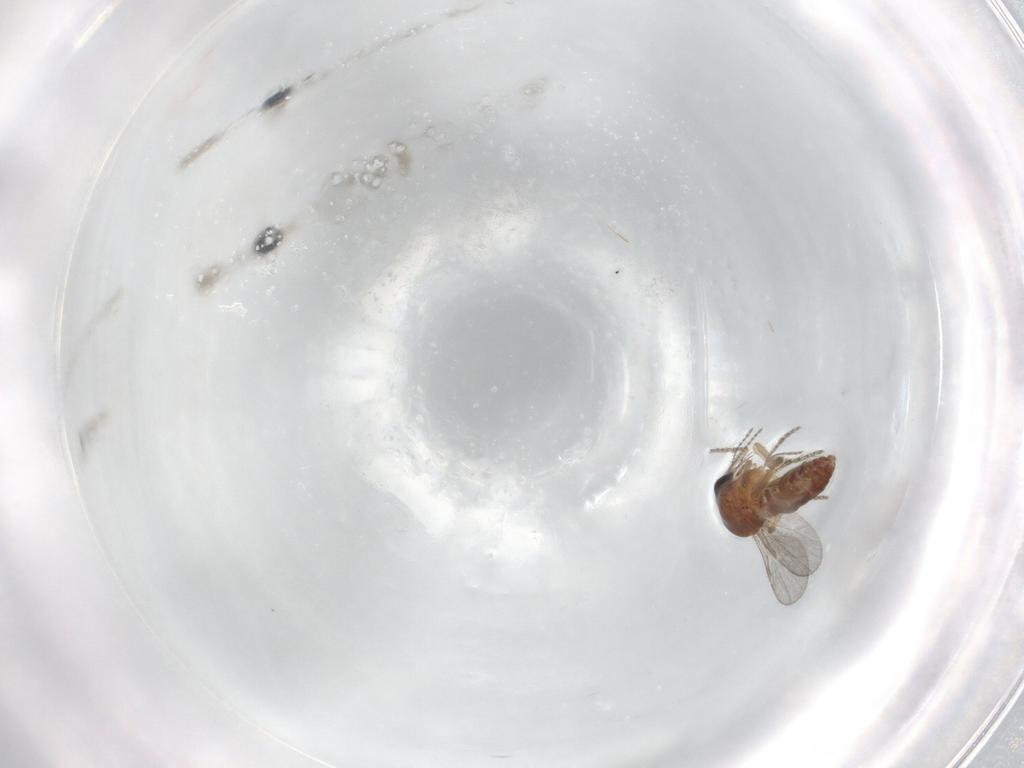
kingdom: Animalia
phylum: Arthropoda
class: Insecta
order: Diptera
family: Ceratopogonidae
